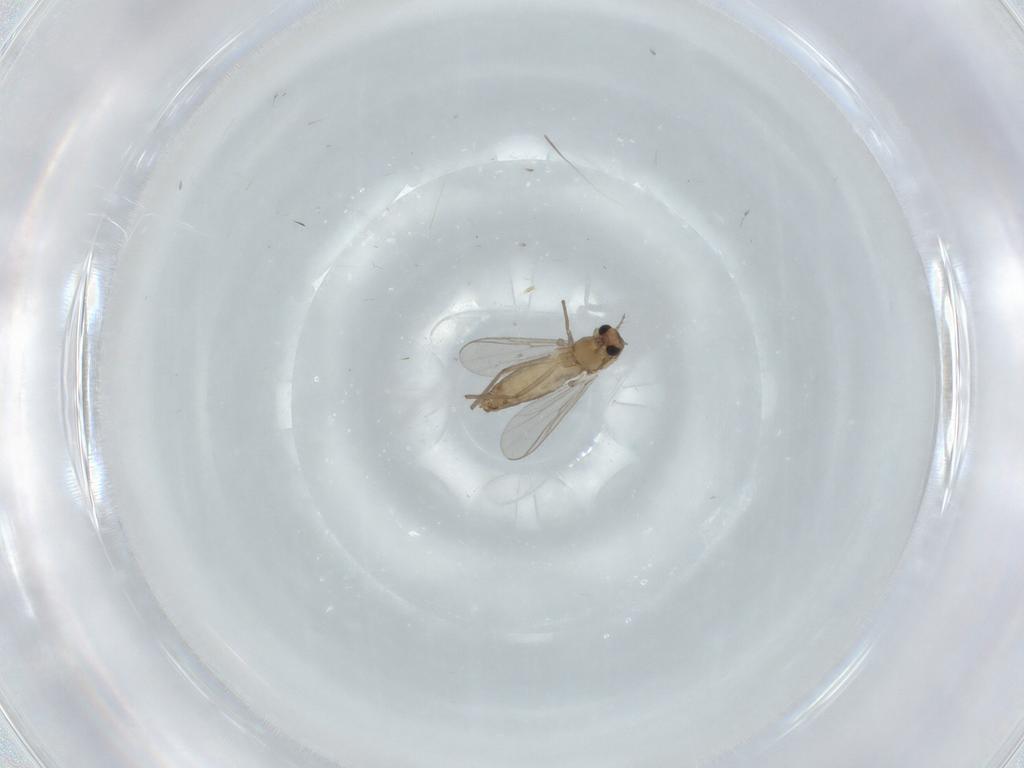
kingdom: Animalia
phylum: Arthropoda
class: Insecta
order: Diptera
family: Chironomidae
